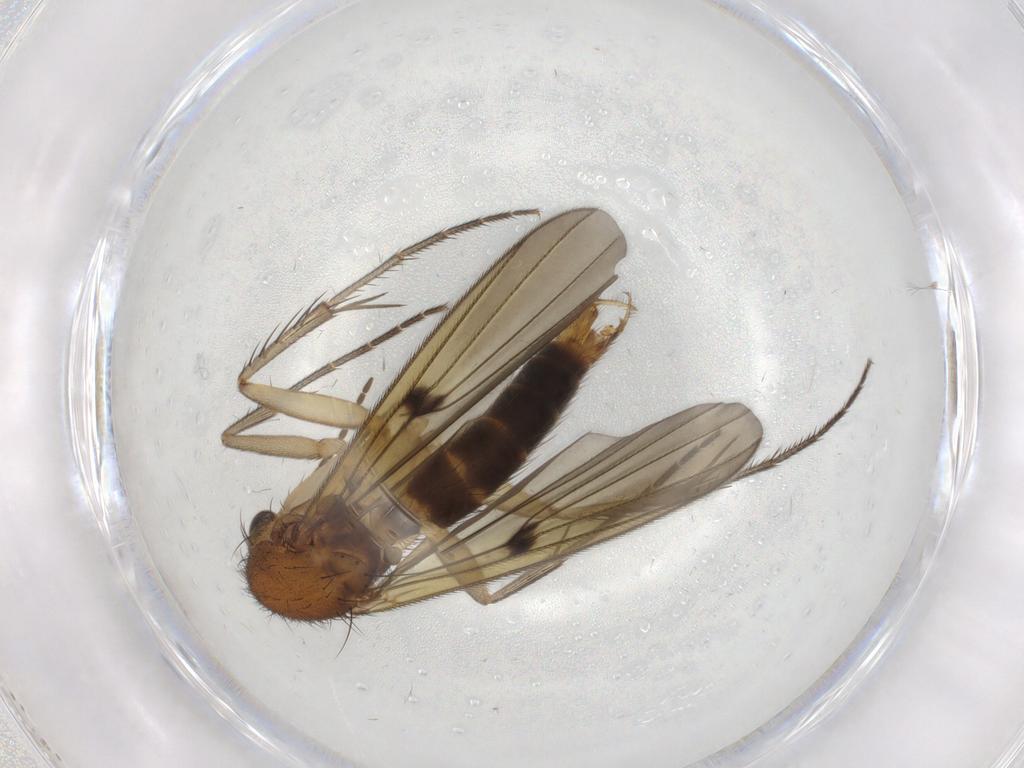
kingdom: Animalia
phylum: Arthropoda
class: Insecta
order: Diptera
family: Mycetophilidae
